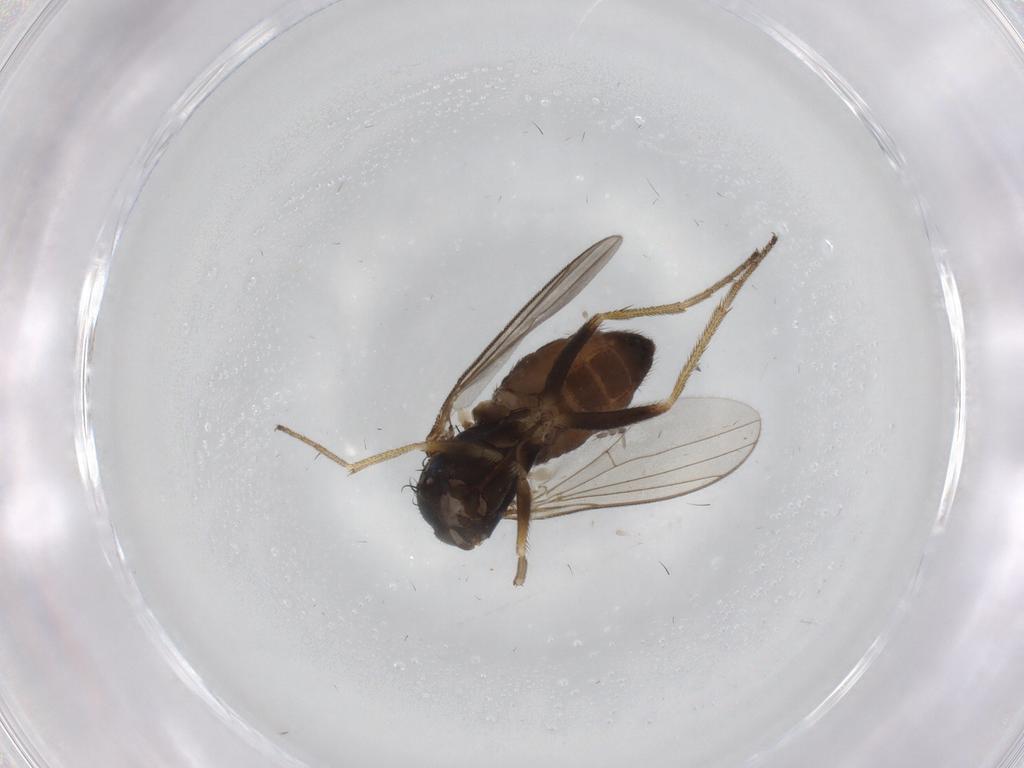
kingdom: Animalia
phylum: Arthropoda
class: Insecta
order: Diptera
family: Limoniidae
